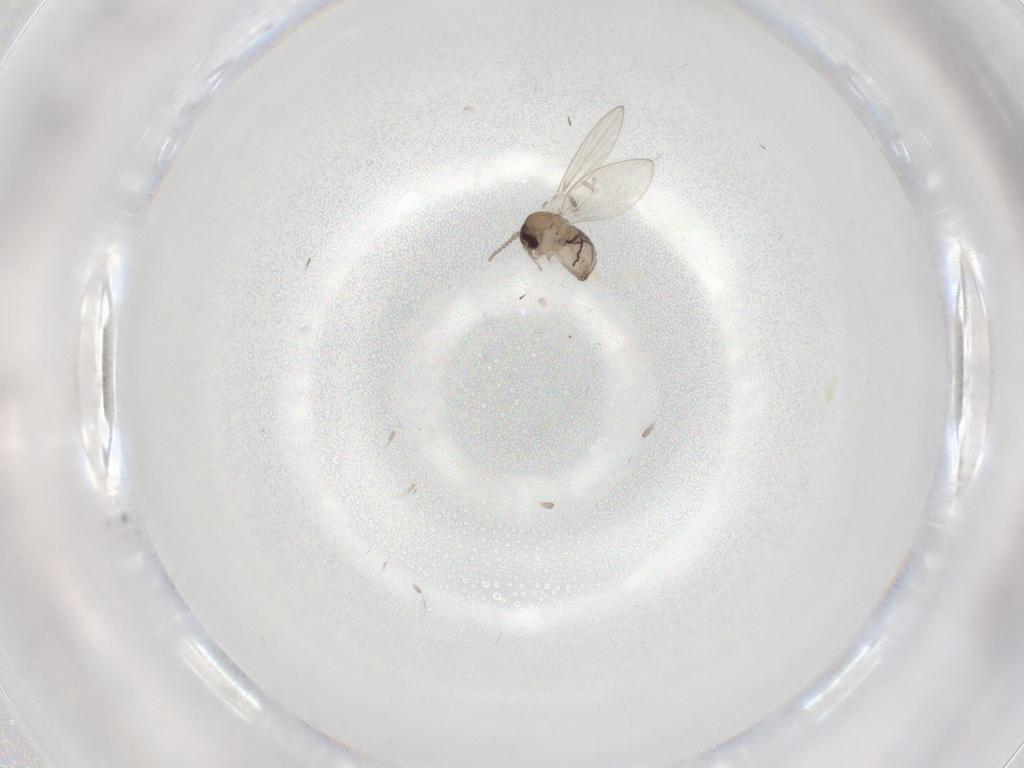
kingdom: Animalia
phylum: Arthropoda
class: Insecta
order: Diptera
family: Psychodidae
